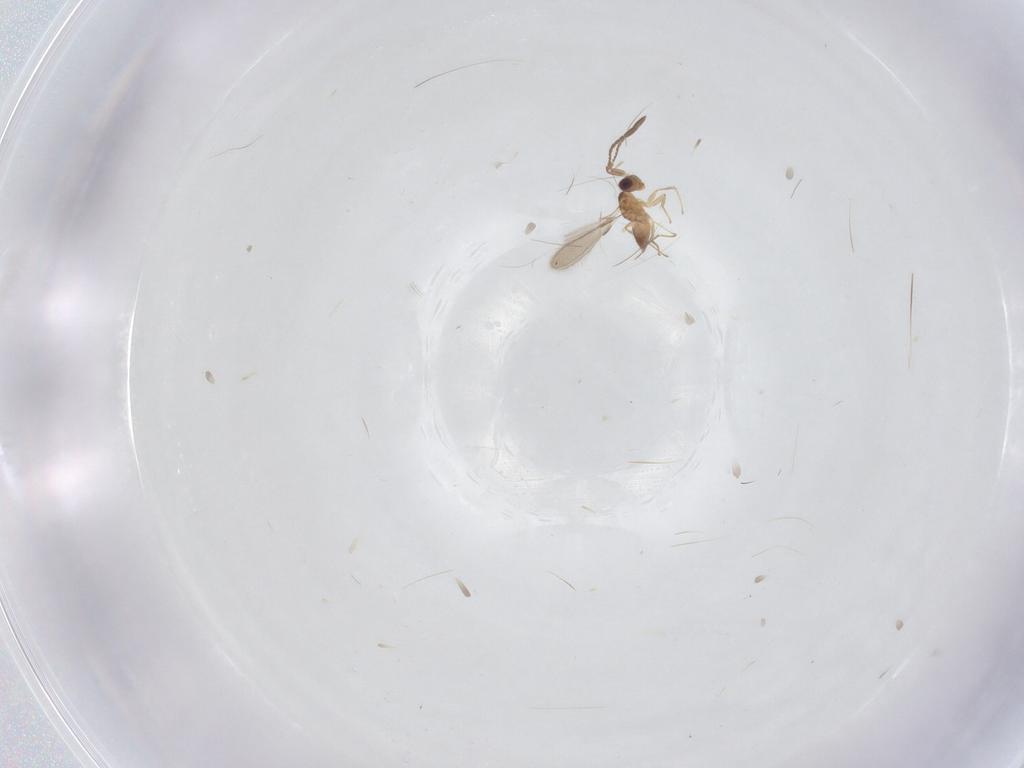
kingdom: Animalia
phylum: Arthropoda
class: Insecta
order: Hymenoptera
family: Mymaridae
